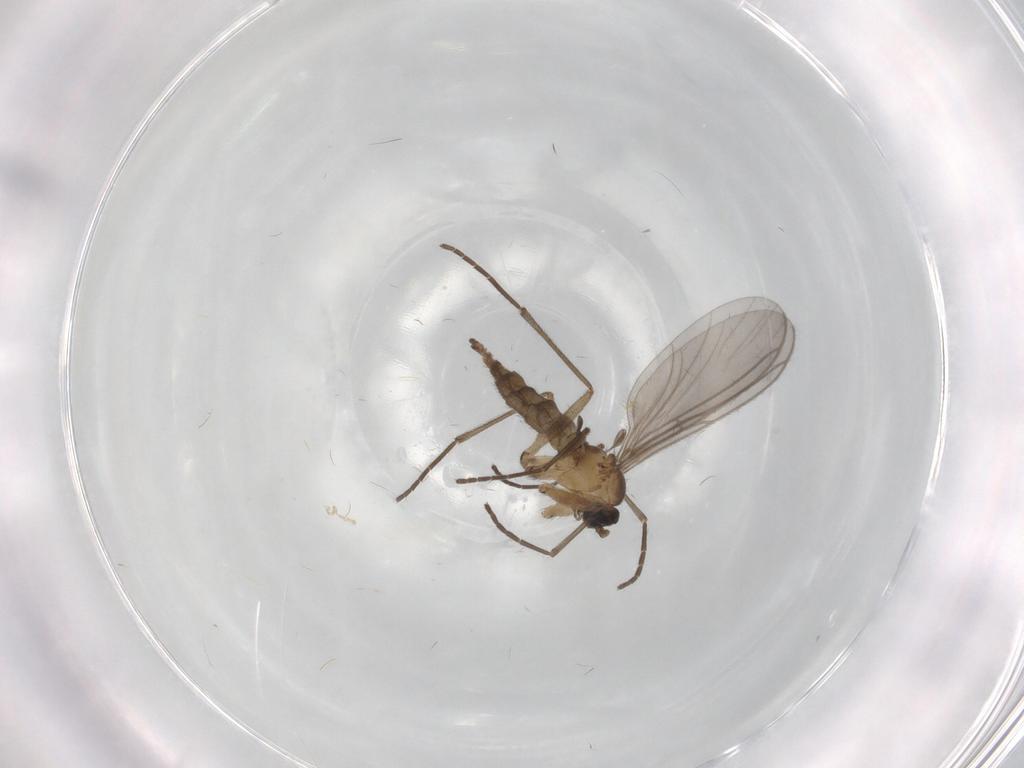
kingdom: Animalia
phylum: Arthropoda
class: Insecta
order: Diptera
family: Sciaridae
